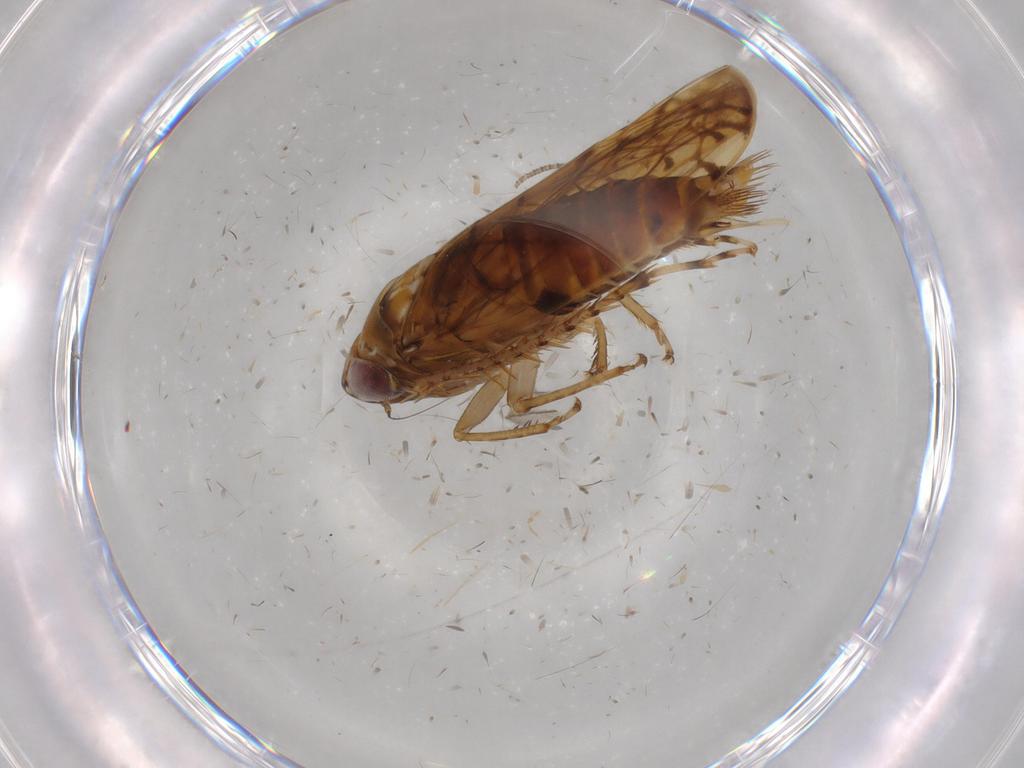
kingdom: Animalia
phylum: Arthropoda
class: Insecta
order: Hemiptera
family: Cicadellidae
